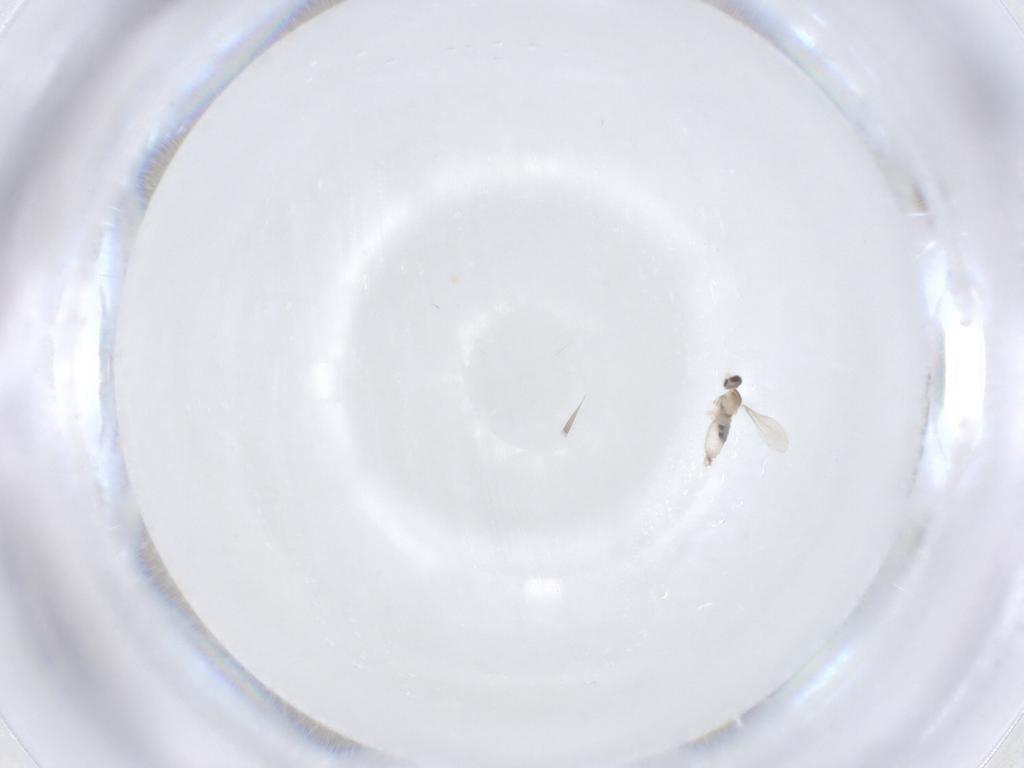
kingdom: Animalia
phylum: Arthropoda
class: Insecta
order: Diptera
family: Cecidomyiidae
